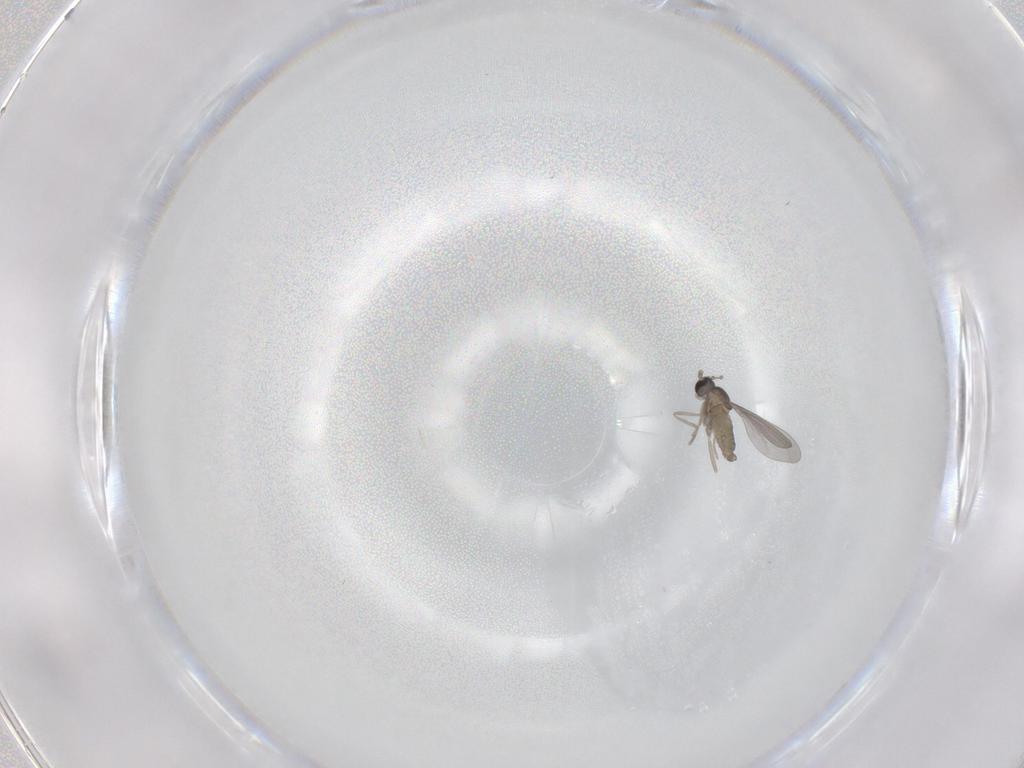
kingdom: Animalia
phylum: Arthropoda
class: Insecta
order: Diptera
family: Cecidomyiidae
